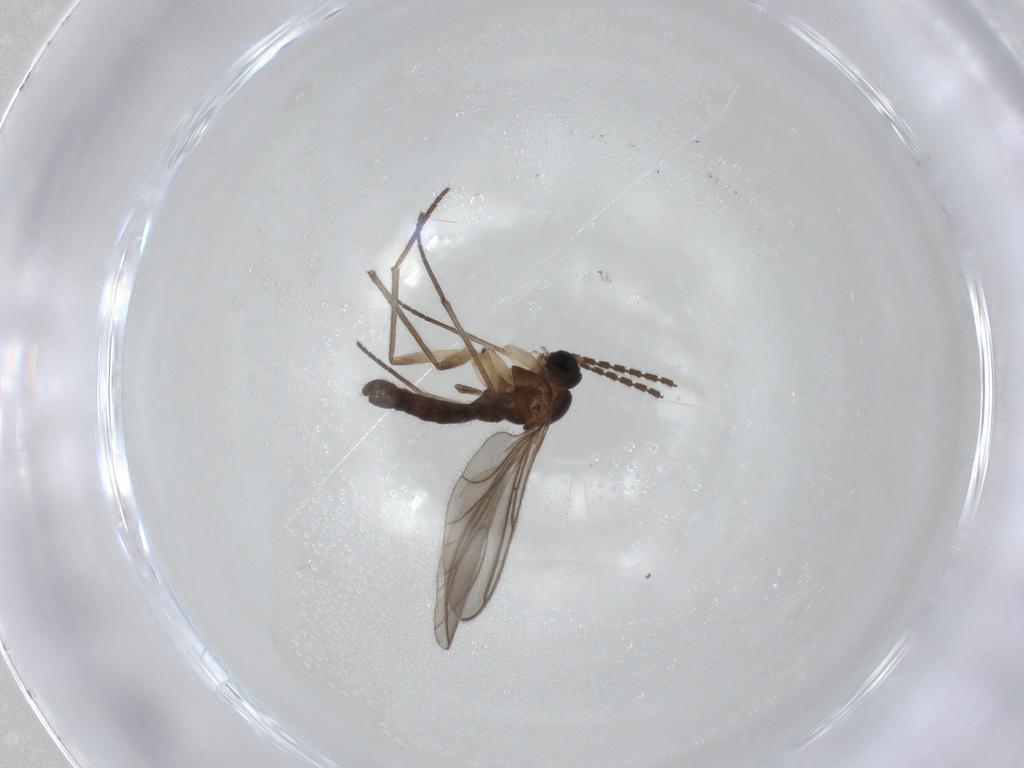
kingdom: Animalia
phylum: Arthropoda
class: Insecta
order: Diptera
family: Sciaridae
